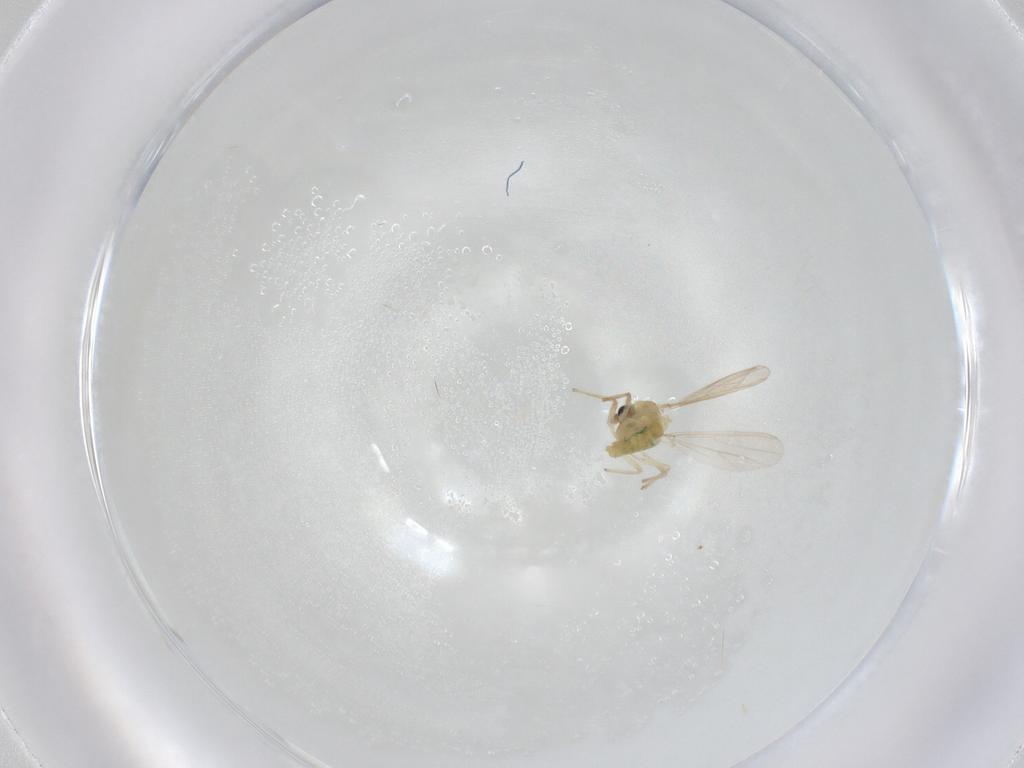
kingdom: Animalia
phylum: Arthropoda
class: Insecta
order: Diptera
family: Chironomidae
